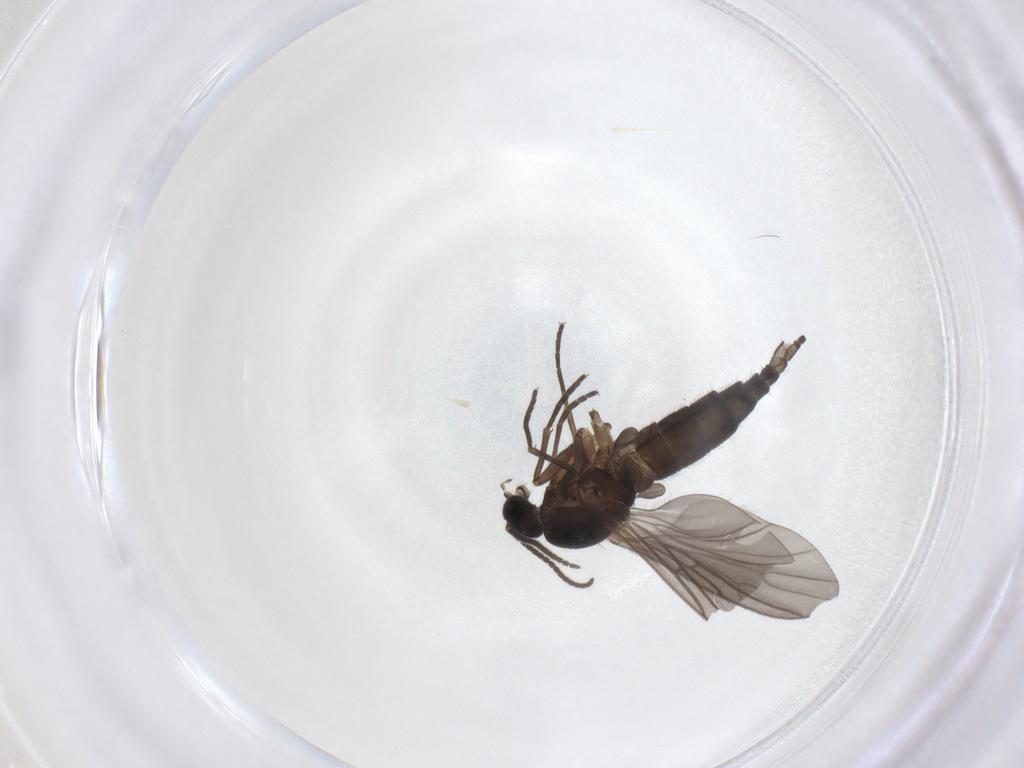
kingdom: Animalia
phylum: Arthropoda
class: Insecta
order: Diptera
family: Sciaridae
